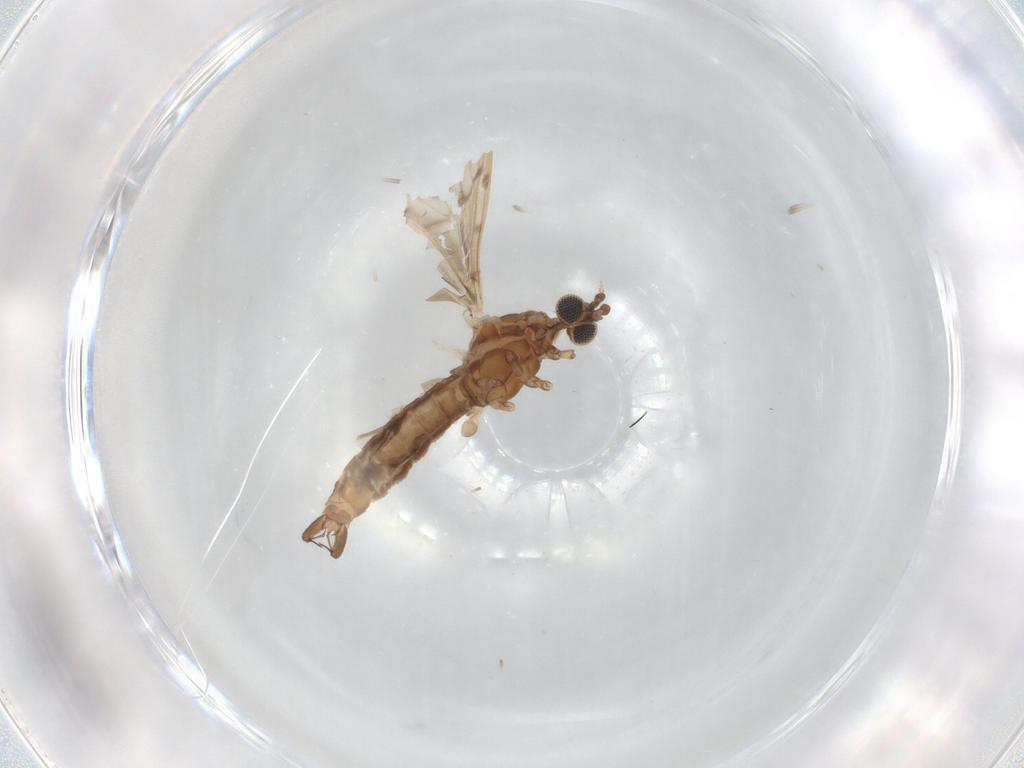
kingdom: Animalia
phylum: Arthropoda
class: Insecta
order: Diptera
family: Limoniidae
